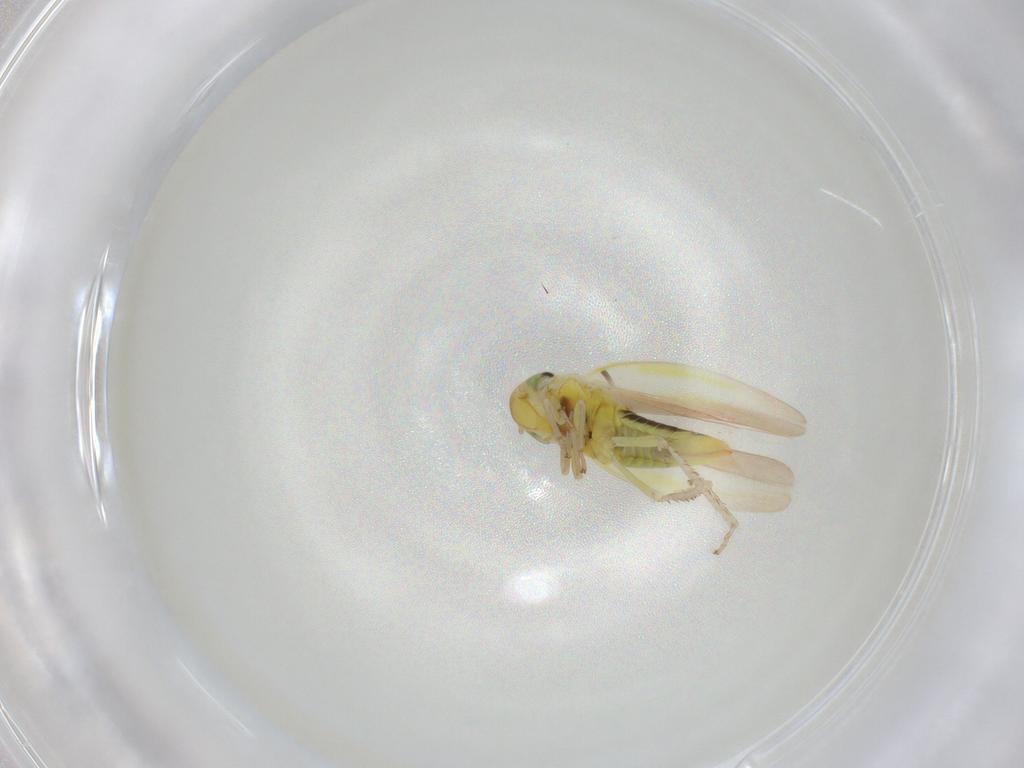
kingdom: Animalia
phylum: Arthropoda
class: Insecta
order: Hemiptera
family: Cicadellidae
